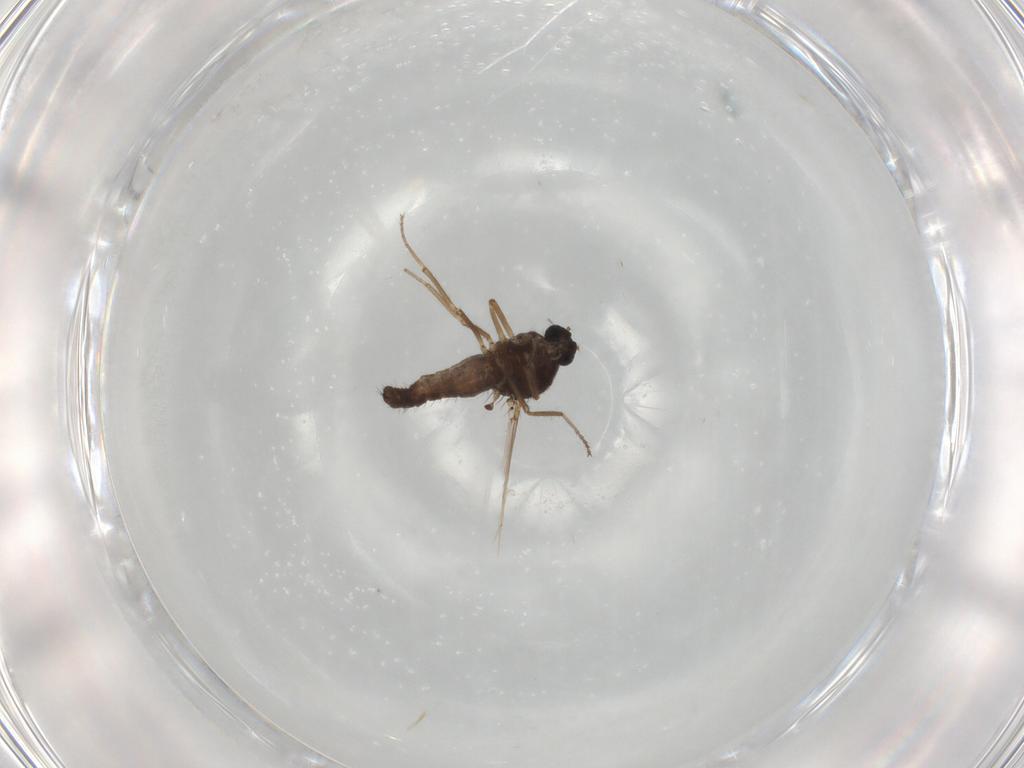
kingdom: Animalia
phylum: Arthropoda
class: Insecta
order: Diptera
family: Ceratopogonidae
